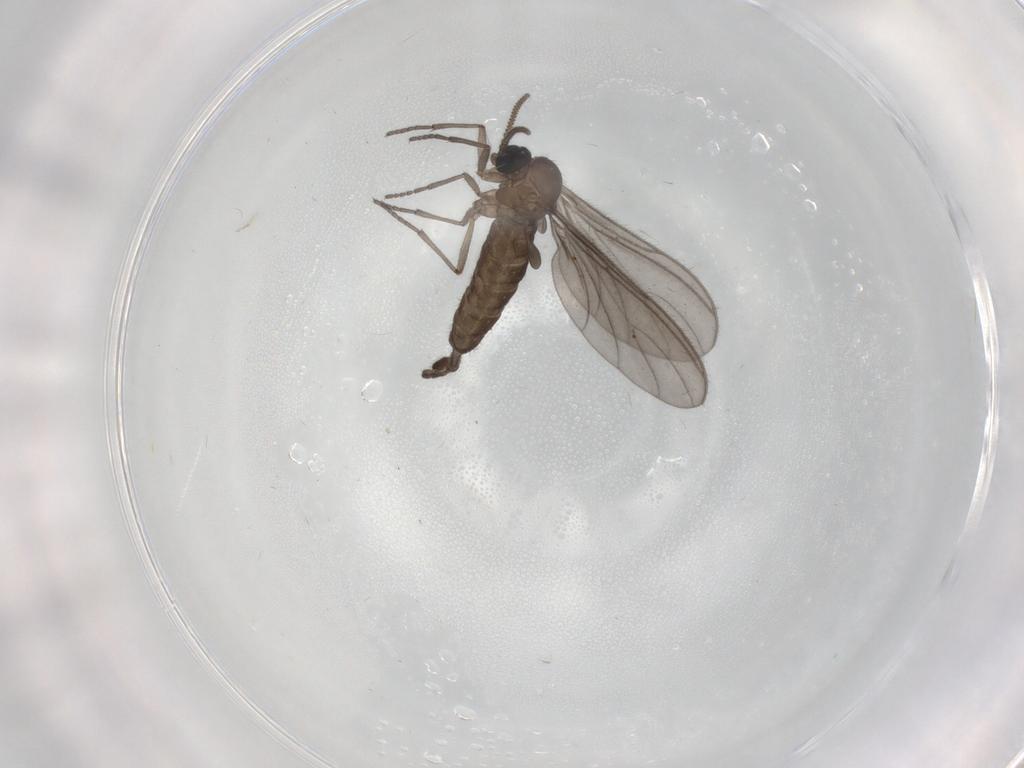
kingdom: Animalia
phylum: Arthropoda
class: Insecta
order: Diptera
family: Sciaridae
